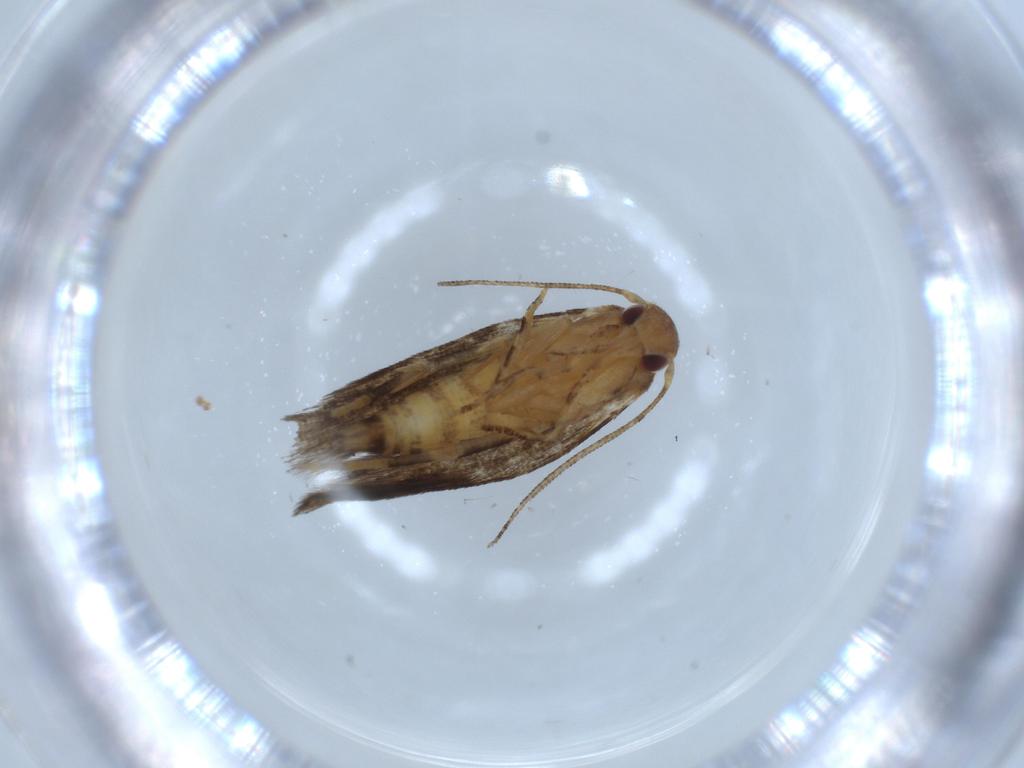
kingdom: Animalia
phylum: Arthropoda
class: Insecta
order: Lepidoptera
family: Momphidae
